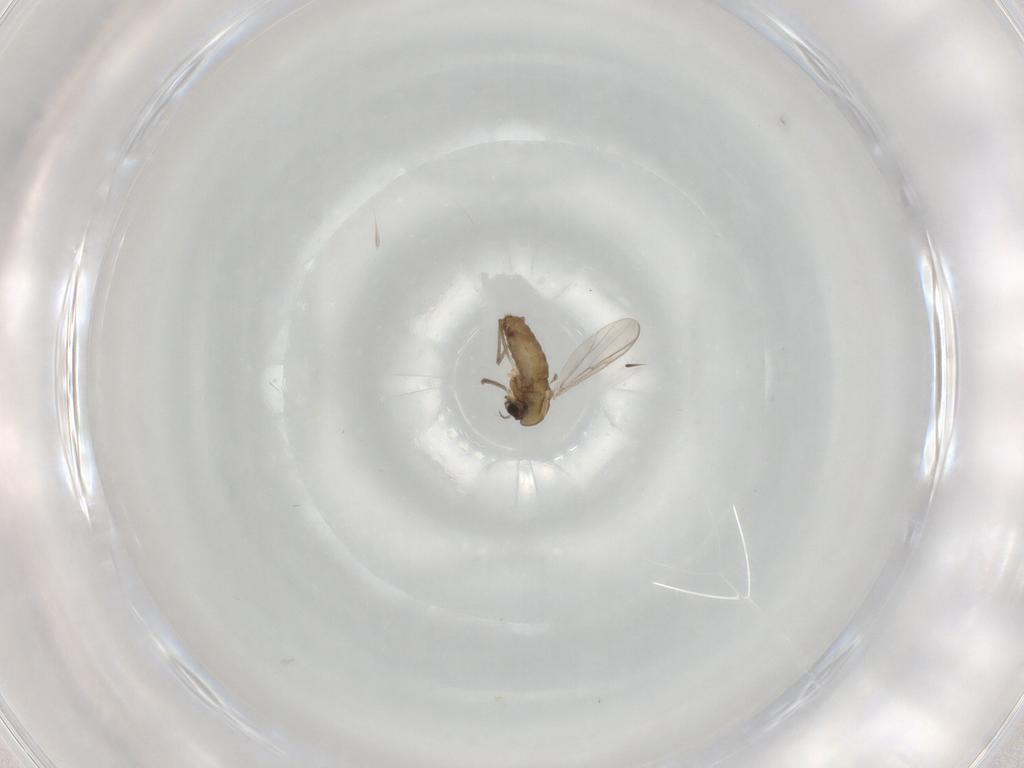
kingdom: Animalia
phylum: Arthropoda
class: Insecta
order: Diptera
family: Chironomidae
